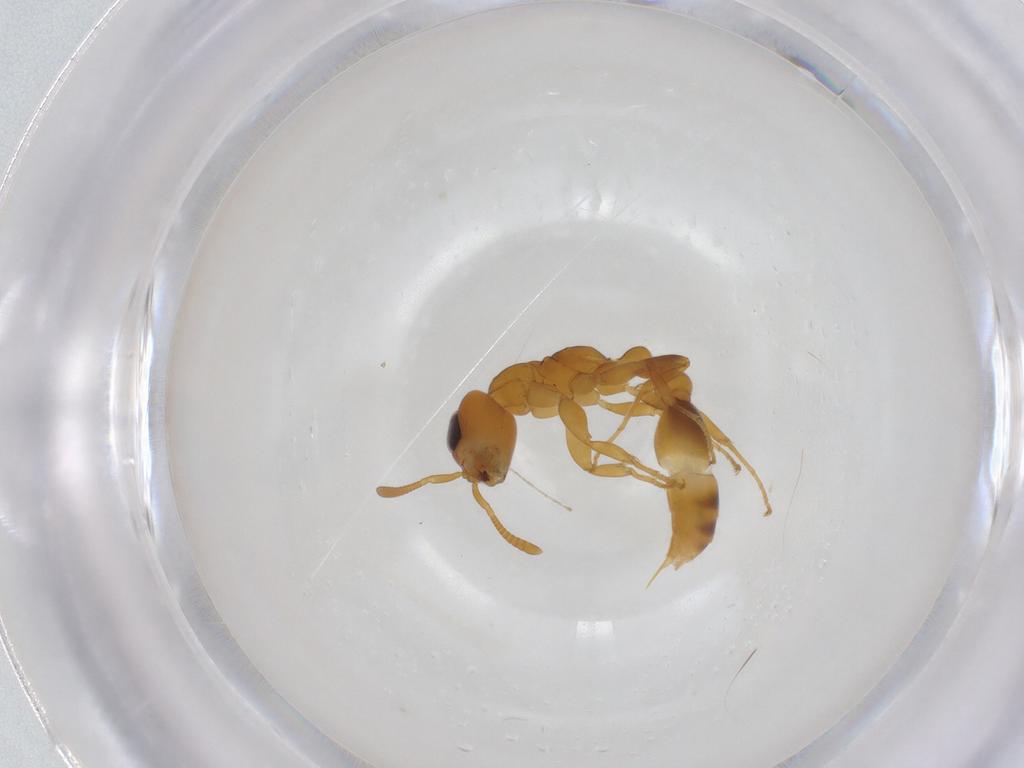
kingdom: Animalia
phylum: Arthropoda
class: Insecta
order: Hymenoptera
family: Formicidae
